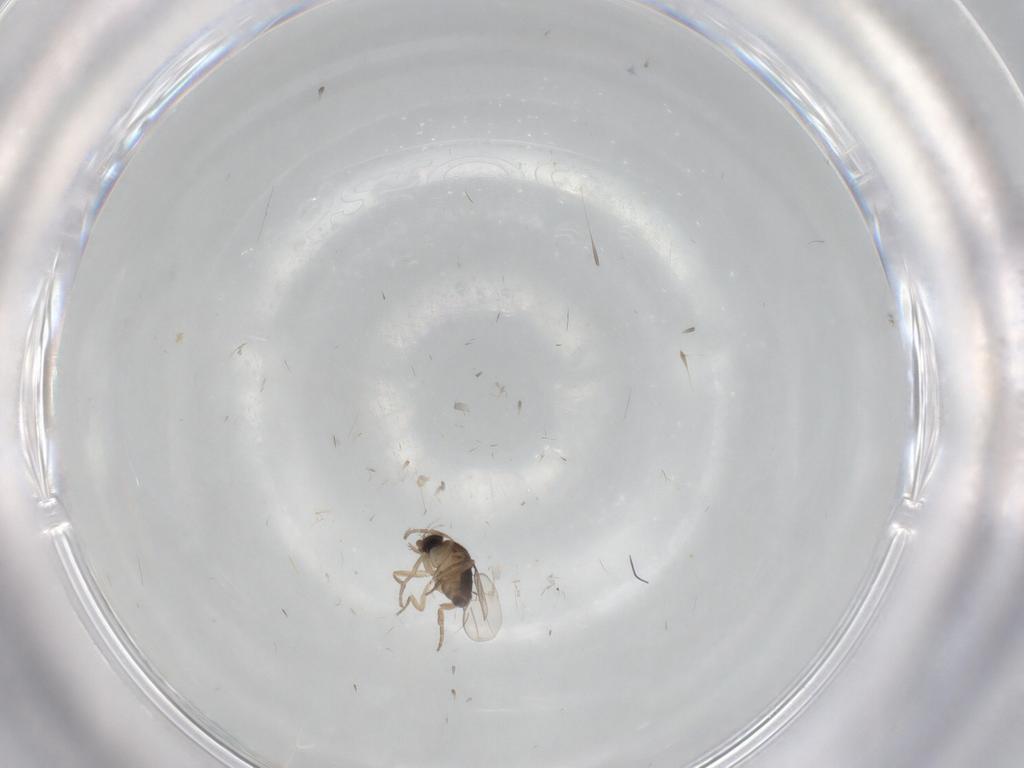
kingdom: Animalia
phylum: Arthropoda
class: Insecta
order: Diptera
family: Phoridae
